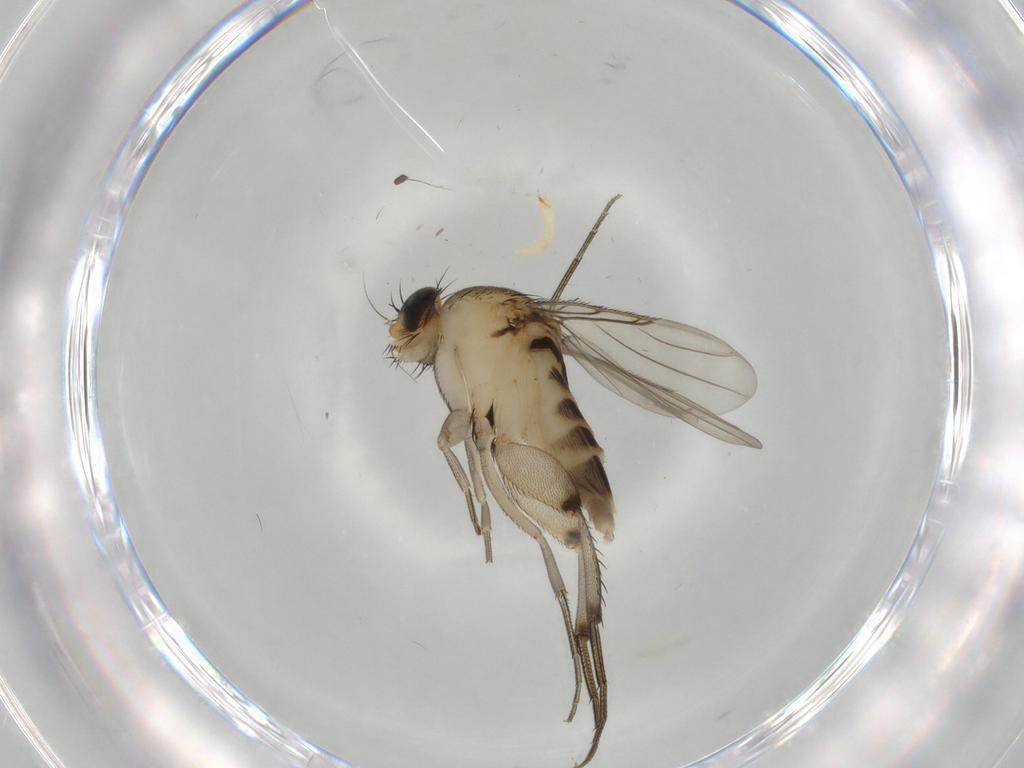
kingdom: Animalia
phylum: Arthropoda
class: Insecta
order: Diptera
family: Phoridae
